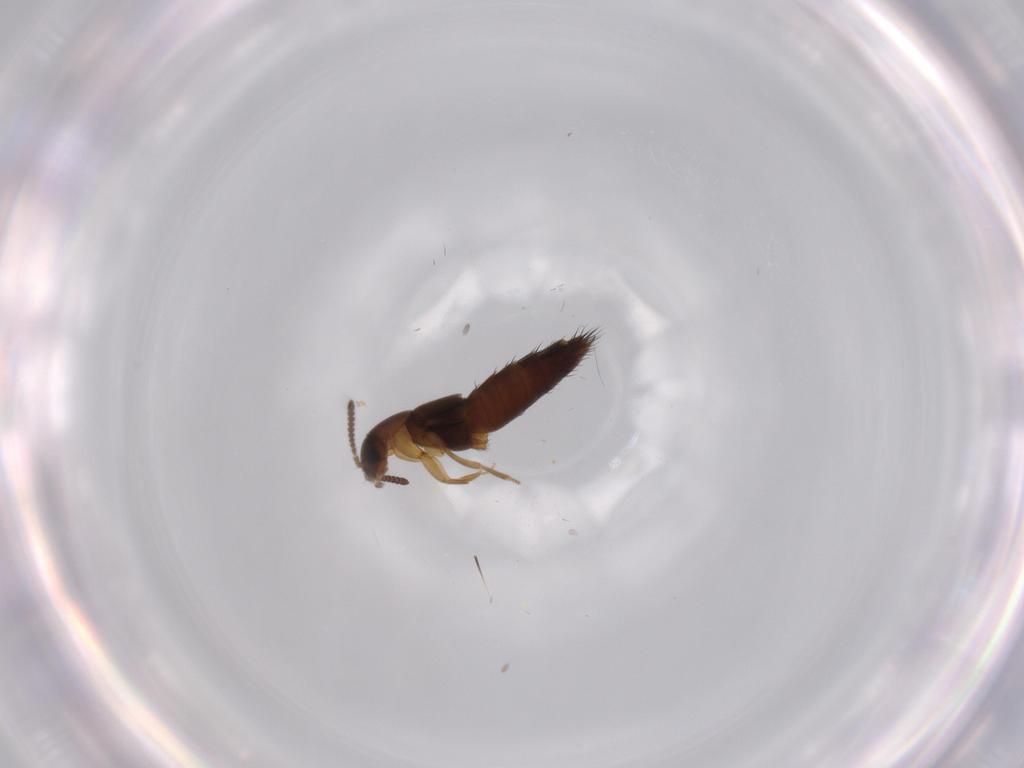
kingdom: Animalia
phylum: Arthropoda
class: Insecta
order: Coleoptera
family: Staphylinidae
